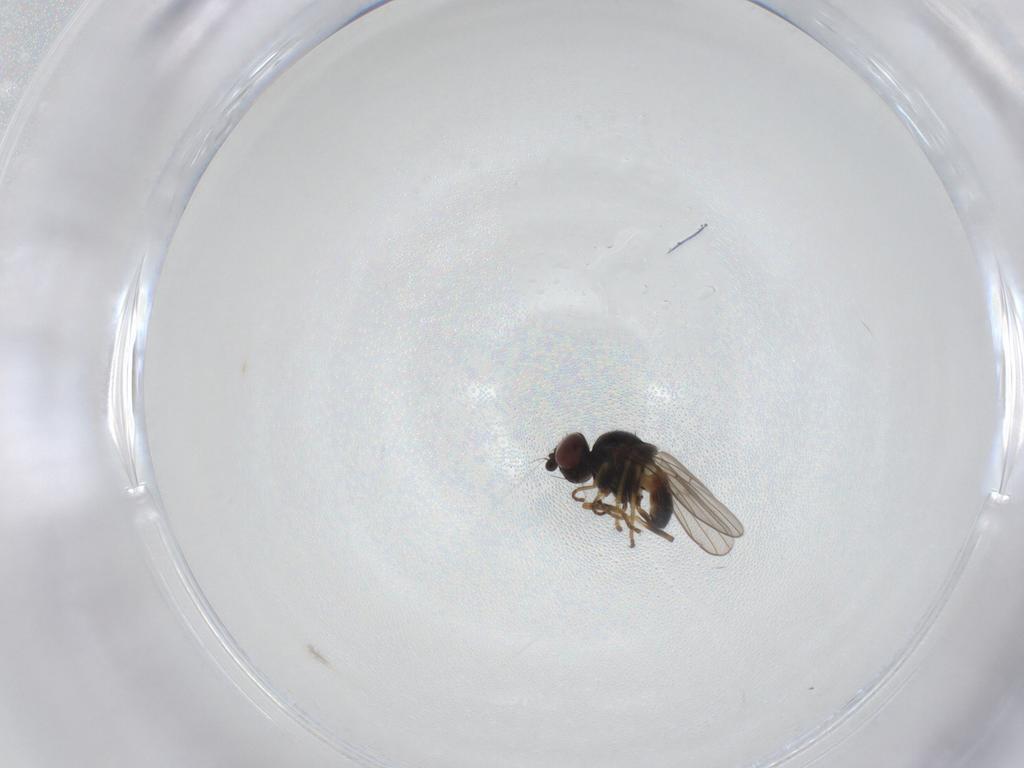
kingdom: Animalia
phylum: Arthropoda
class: Insecta
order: Diptera
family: Chloropidae
